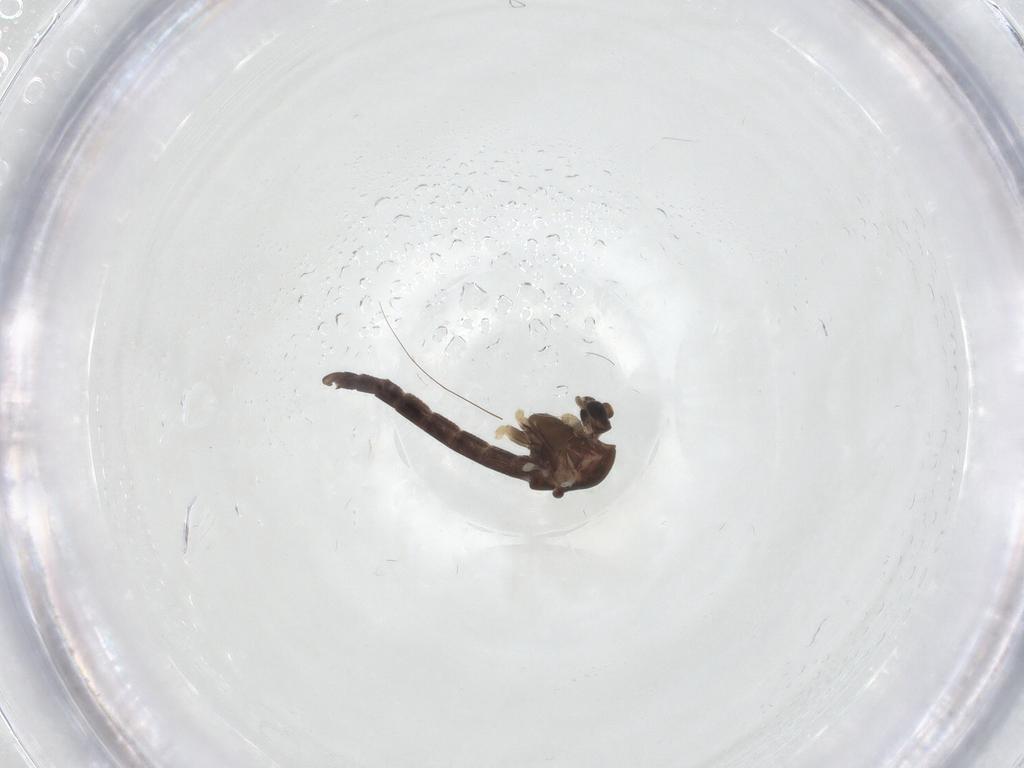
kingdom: Animalia
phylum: Arthropoda
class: Insecta
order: Diptera
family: Chironomidae
